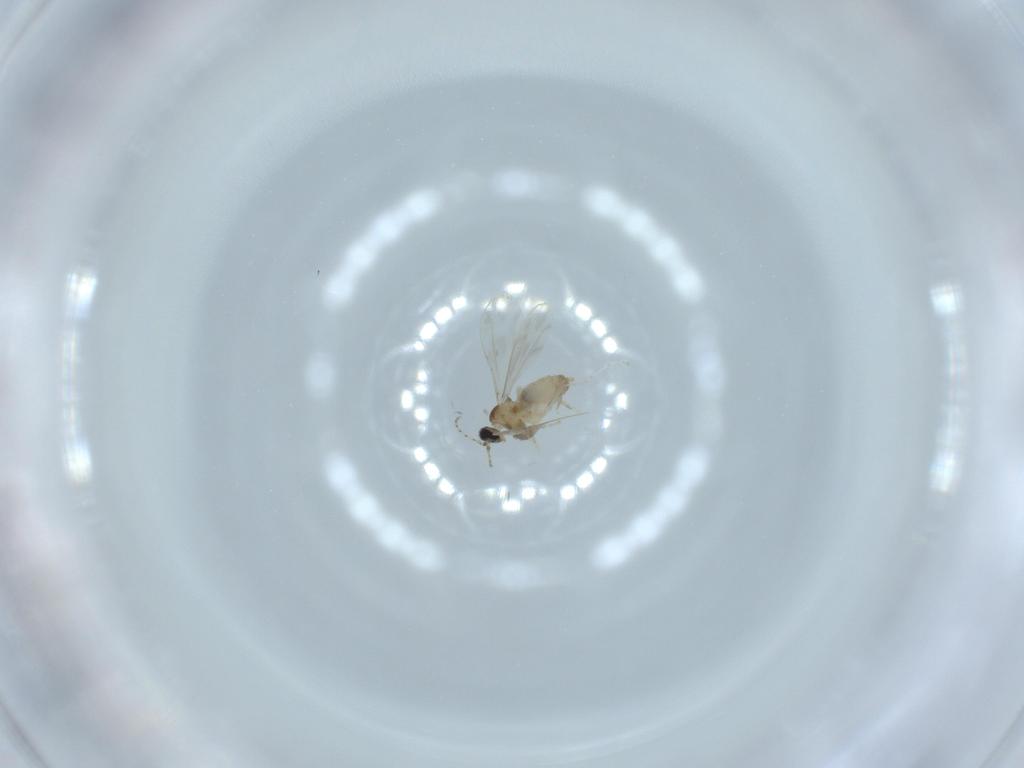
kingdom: Animalia
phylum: Arthropoda
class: Insecta
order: Diptera
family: Cecidomyiidae
